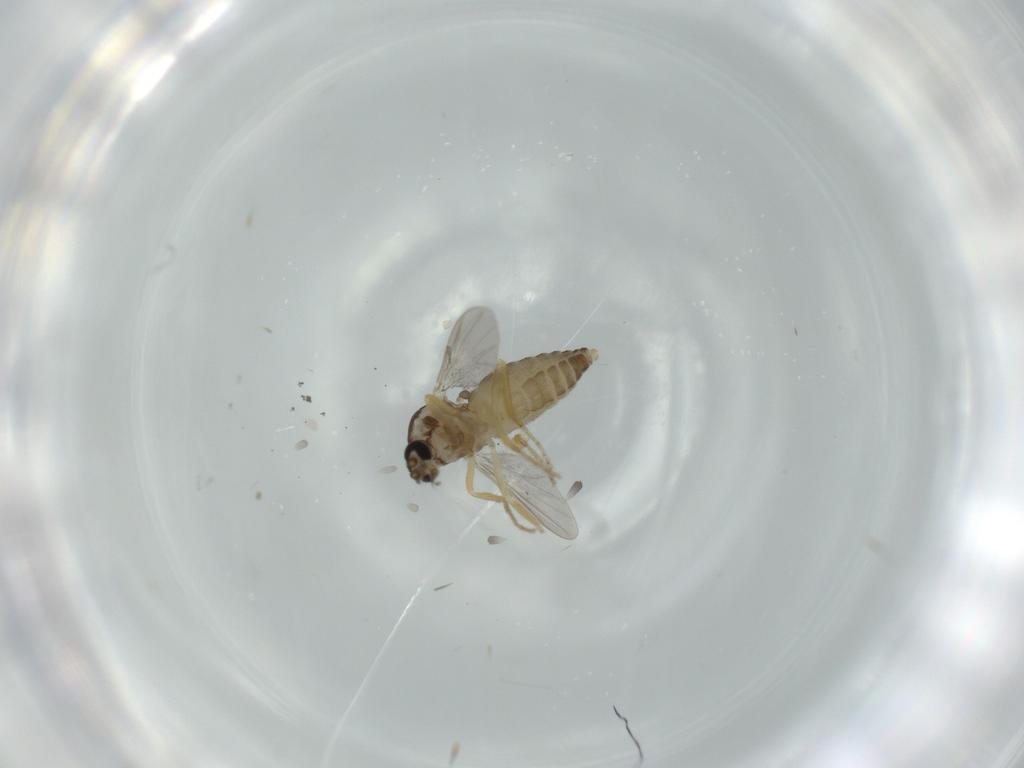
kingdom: Animalia
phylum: Arthropoda
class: Insecta
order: Diptera
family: Ceratopogonidae
